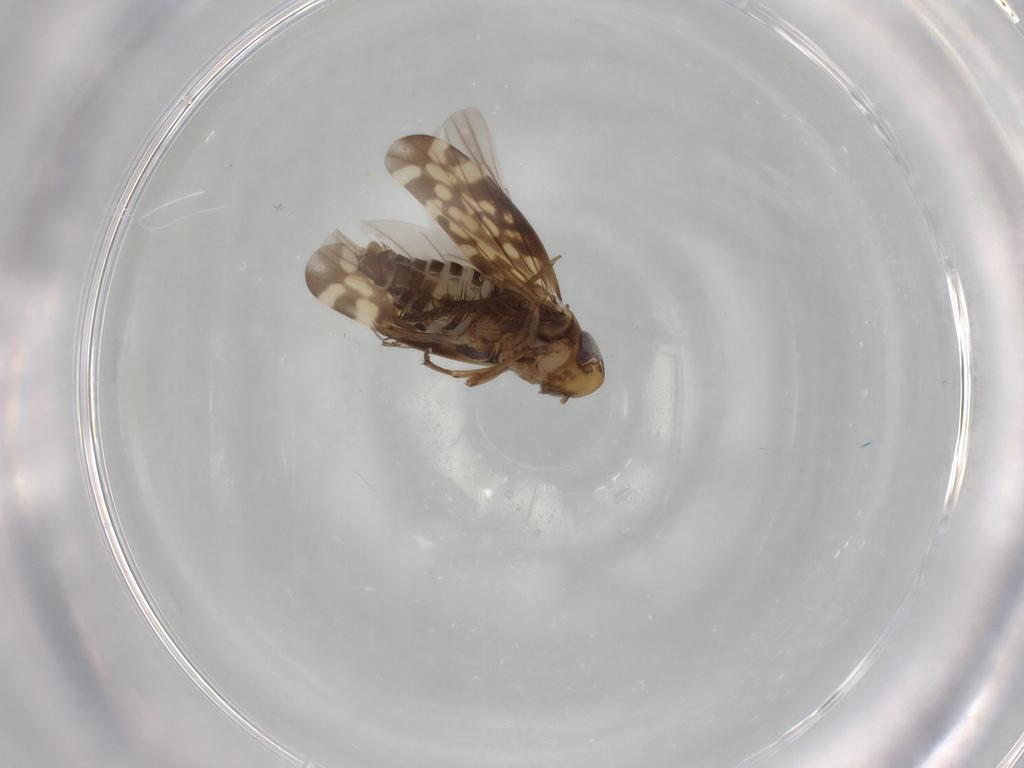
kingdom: Animalia
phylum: Arthropoda
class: Insecta
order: Hemiptera
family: Cicadellidae
